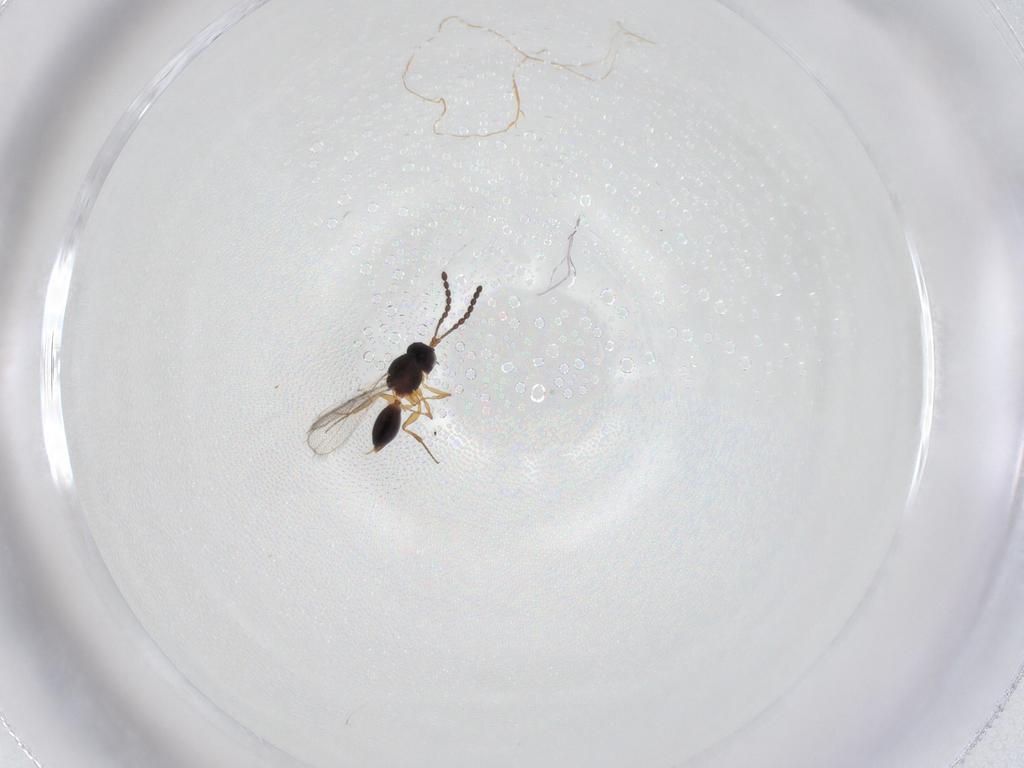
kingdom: Animalia
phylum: Arthropoda
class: Insecta
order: Hymenoptera
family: Figitidae
